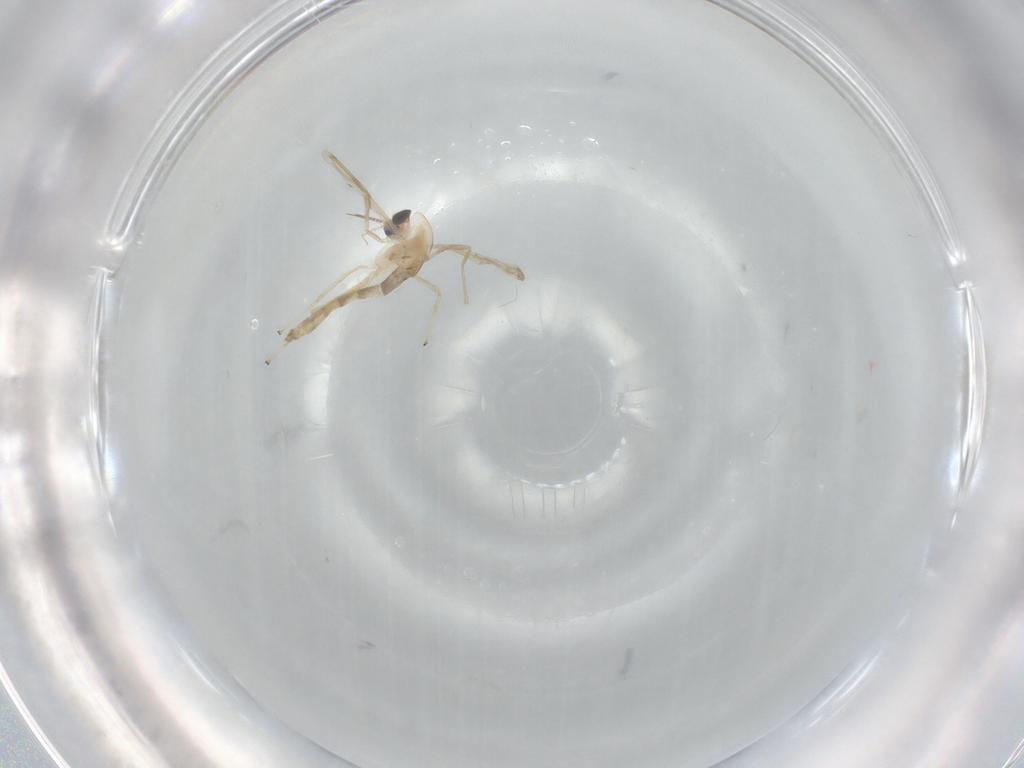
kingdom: Animalia
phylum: Arthropoda
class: Insecta
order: Diptera
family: Chironomidae
